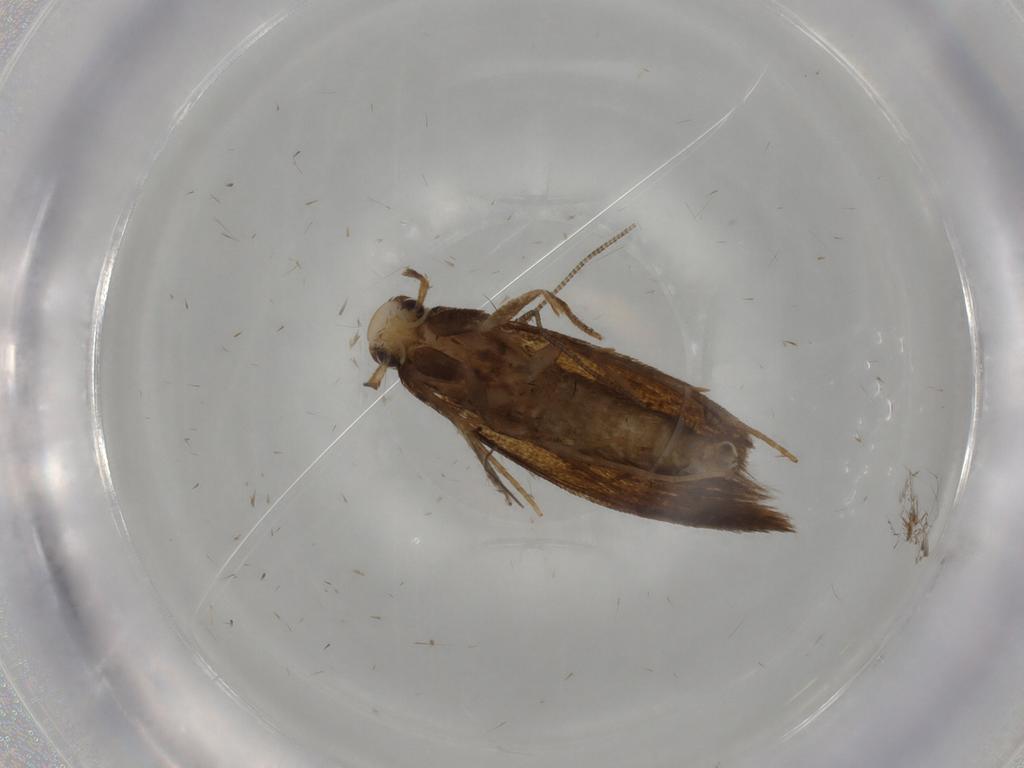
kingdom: Animalia
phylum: Arthropoda
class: Insecta
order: Lepidoptera
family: Tineidae
